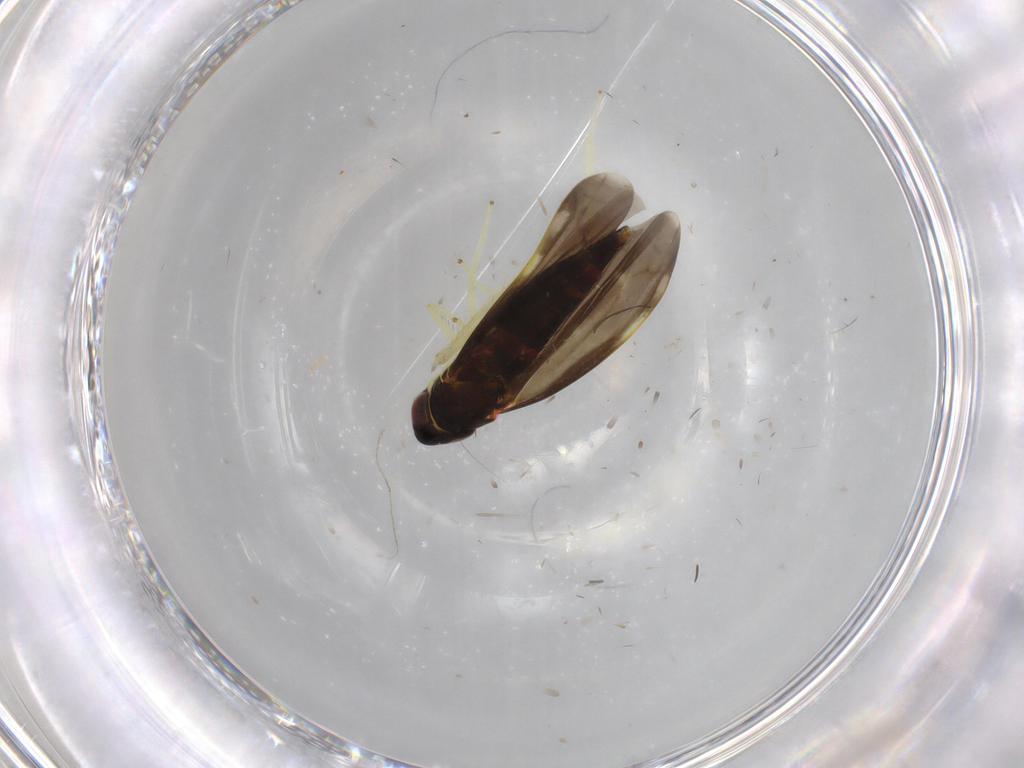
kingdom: Animalia
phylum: Arthropoda
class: Insecta
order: Hemiptera
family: Cicadellidae
